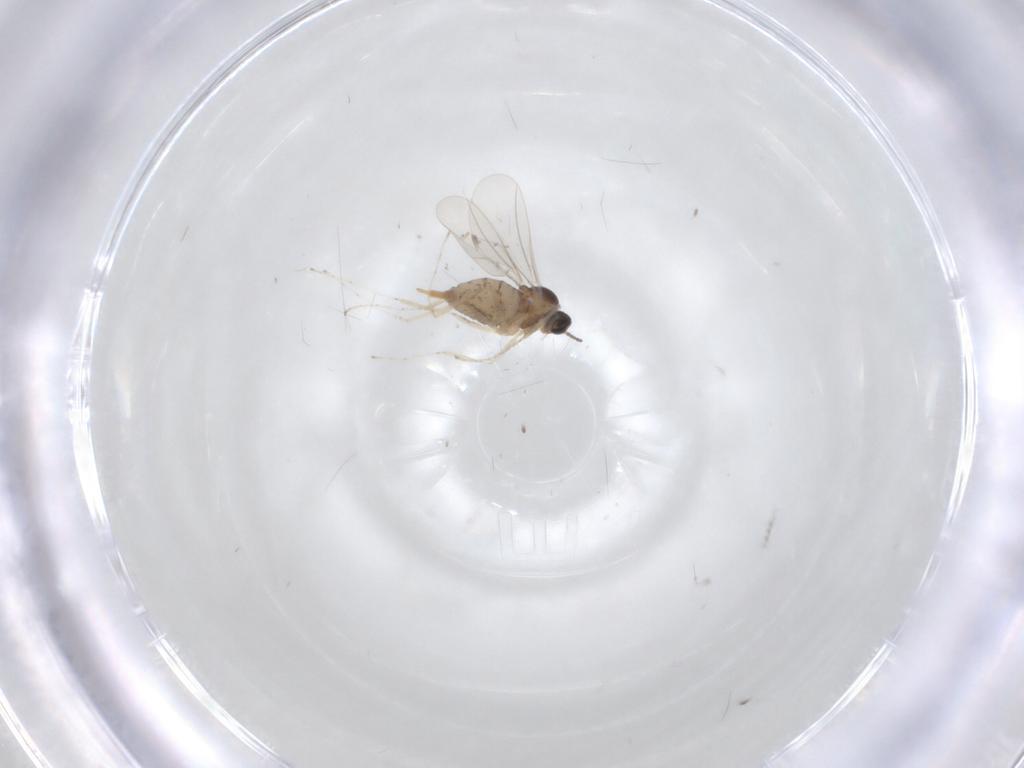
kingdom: Animalia
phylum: Arthropoda
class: Insecta
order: Diptera
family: Cecidomyiidae
